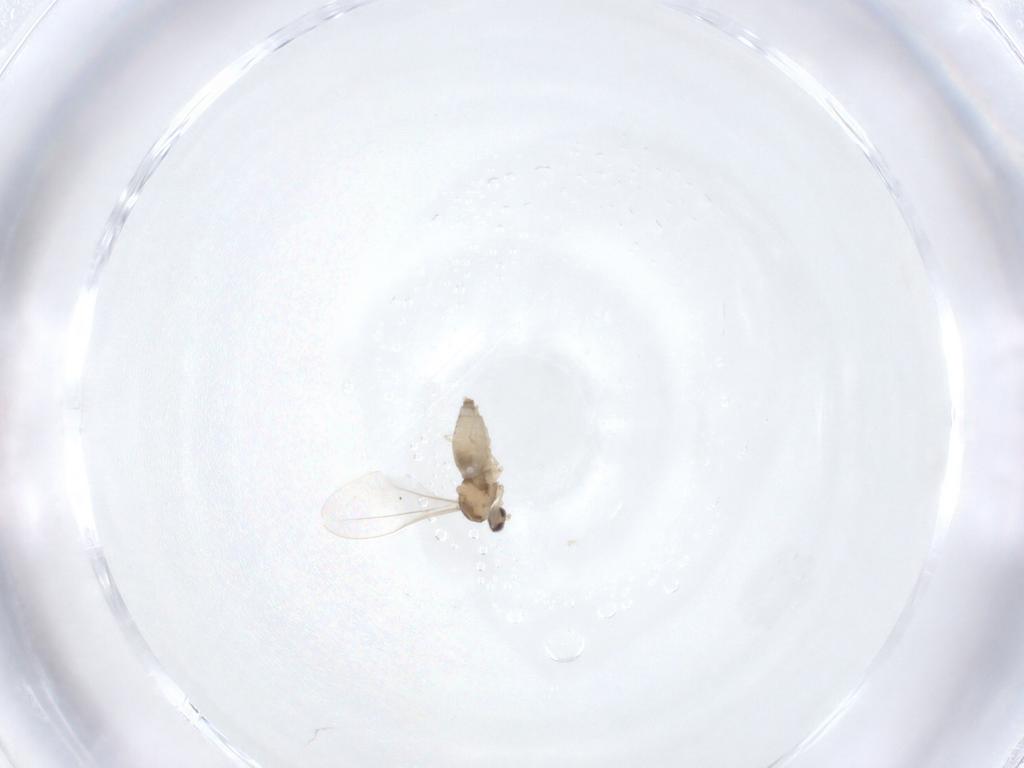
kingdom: Animalia
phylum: Arthropoda
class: Insecta
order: Diptera
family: Cecidomyiidae
